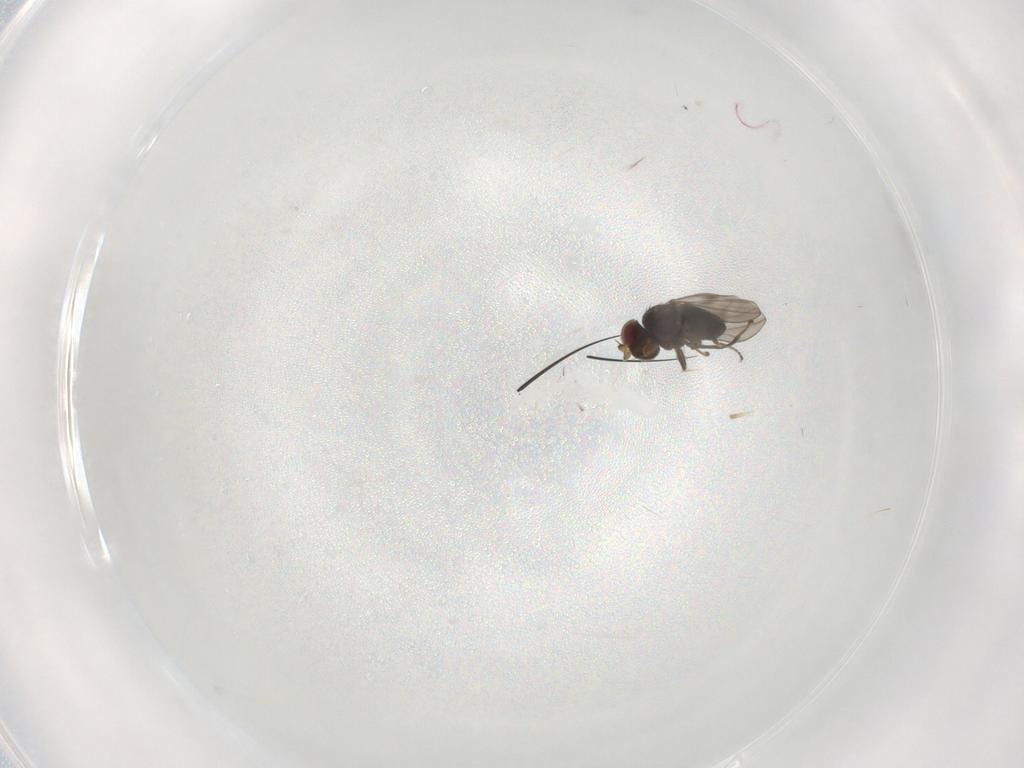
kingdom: Animalia
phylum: Arthropoda
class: Insecta
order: Diptera
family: Ephydridae
